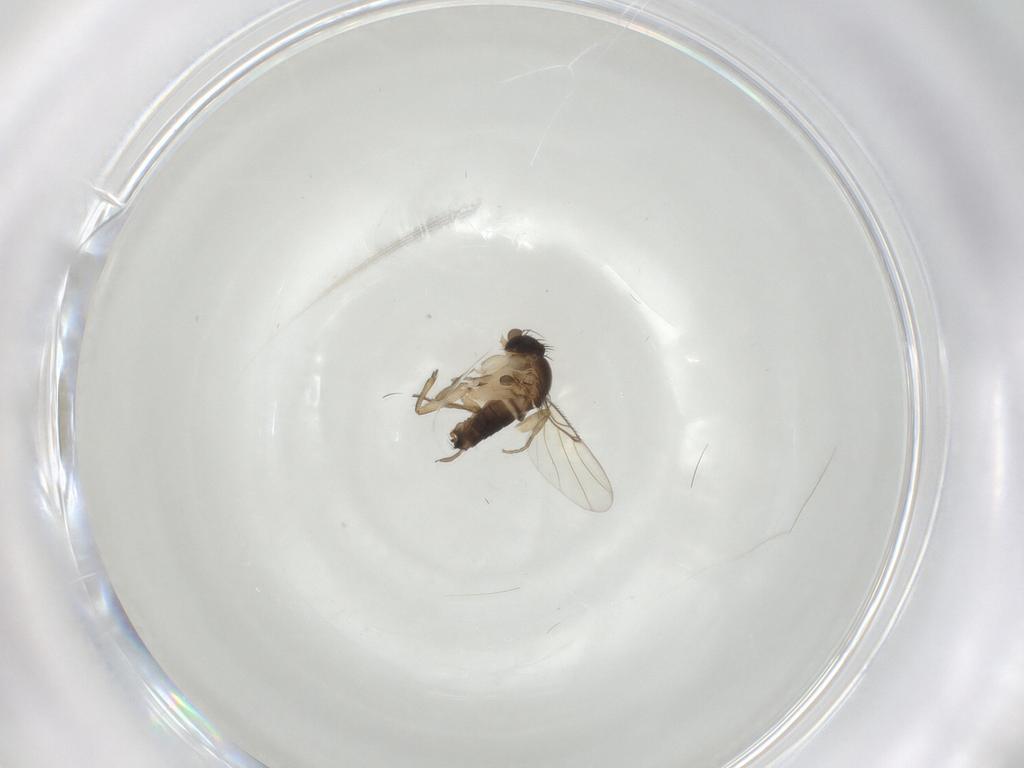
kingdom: Animalia
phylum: Arthropoda
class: Insecta
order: Diptera
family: Phoridae
